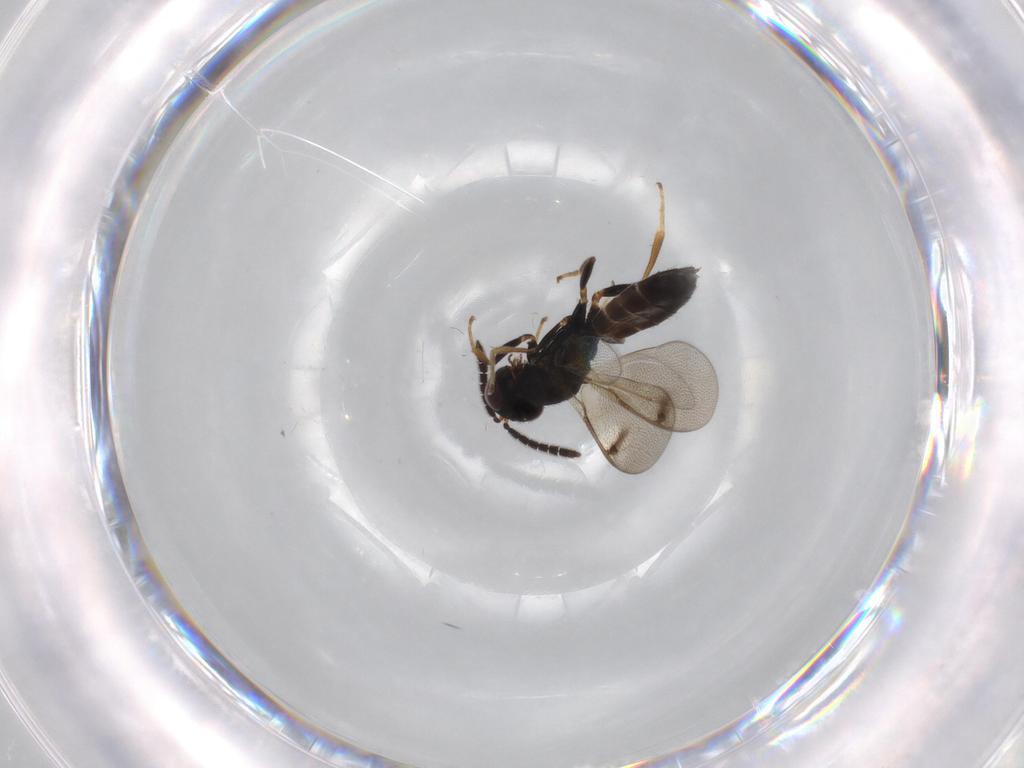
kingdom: Animalia
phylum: Arthropoda
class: Insecta
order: Hymenoptera
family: Pteromalidae
